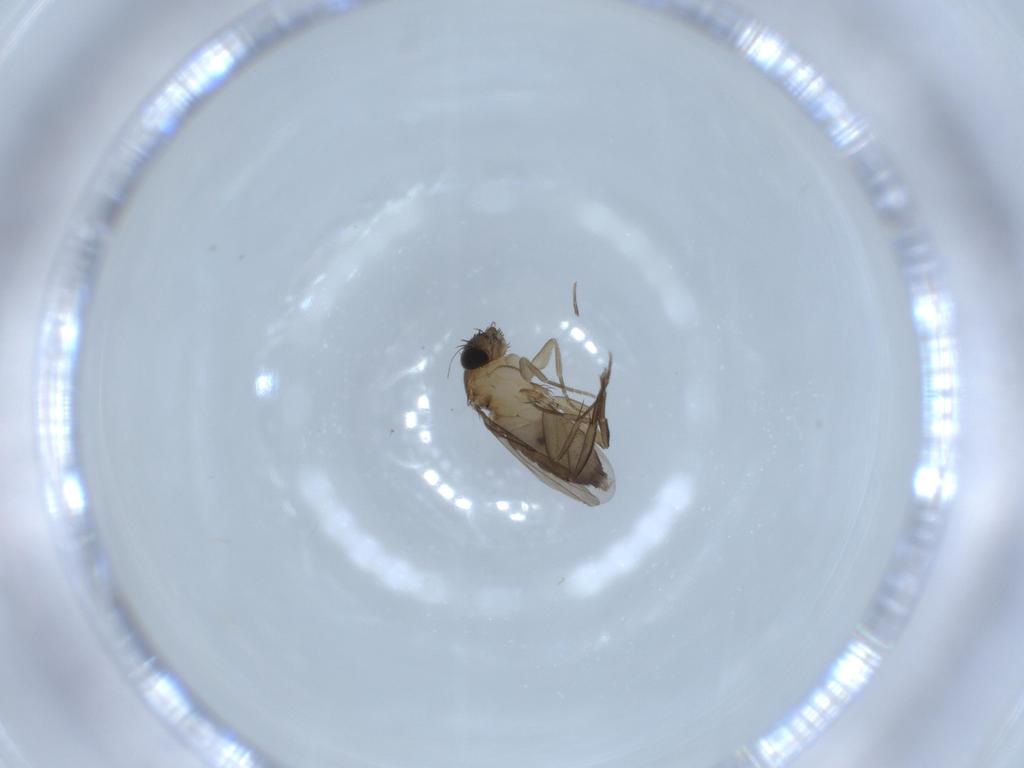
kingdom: Animalia
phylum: Arthropoda
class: Insecta
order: Diptera
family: Phoridae
